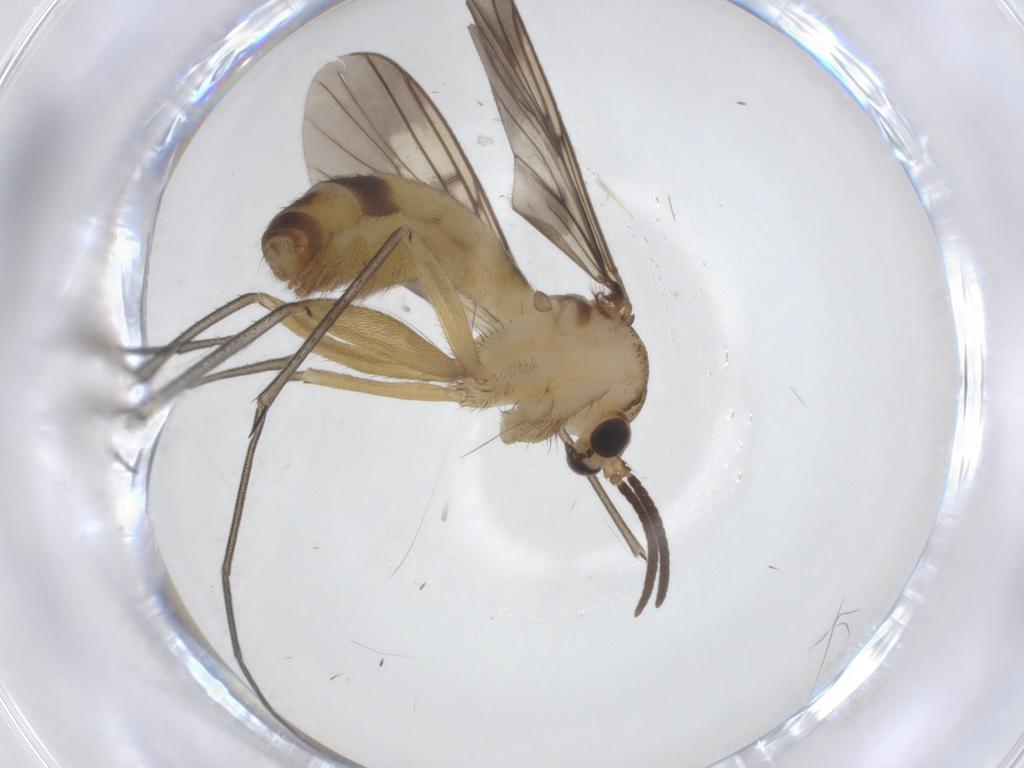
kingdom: Animalia
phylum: Arthropoda
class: Insecta
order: Diptera
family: Mycetophilidae
